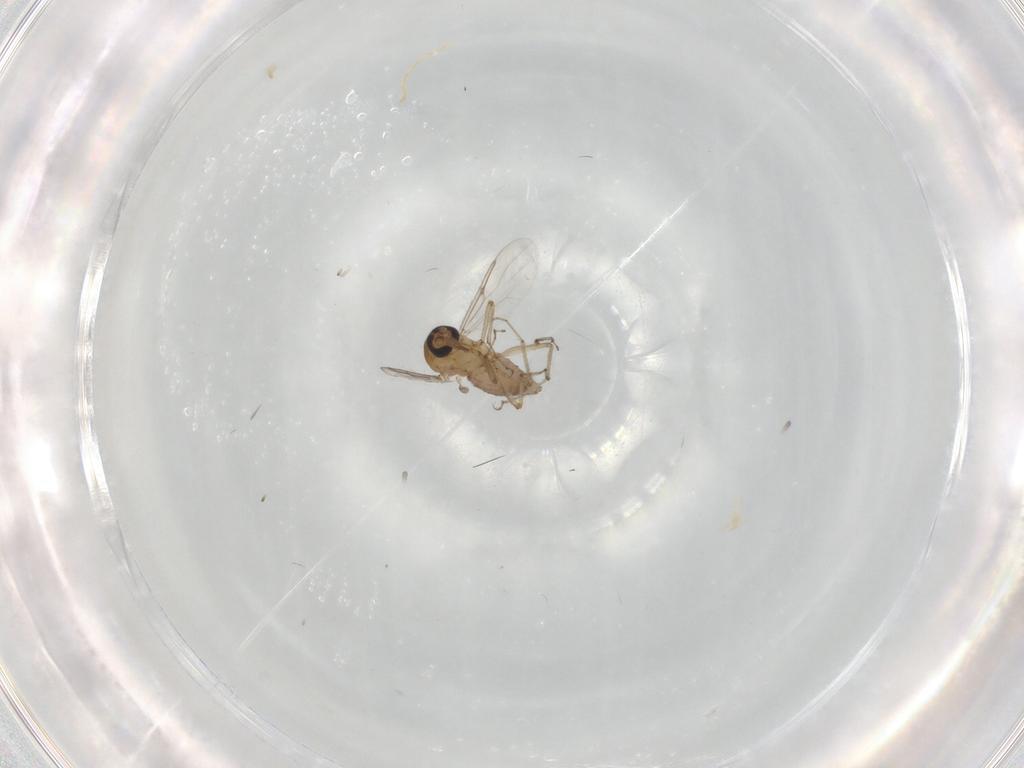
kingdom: Animalia
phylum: Arthropoda
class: Insecta
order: Diptera
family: Ceratopogonidae
